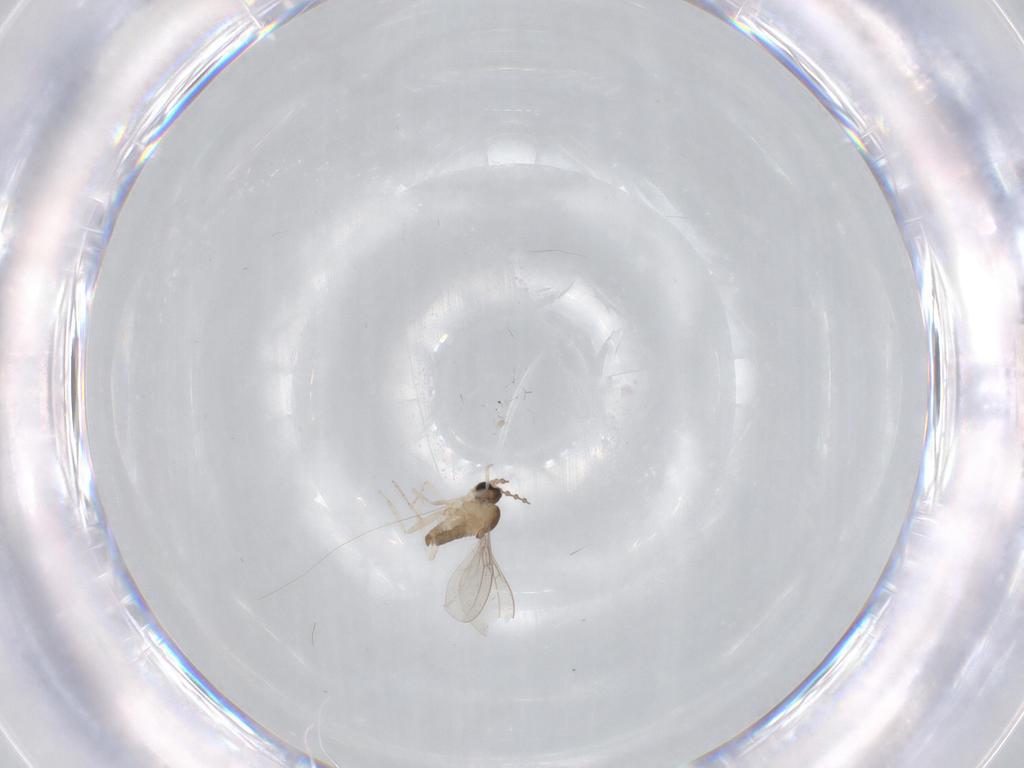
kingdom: Animalia
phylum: Arthropoda
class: Insecta
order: Diptera
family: Cecidomyiidae
